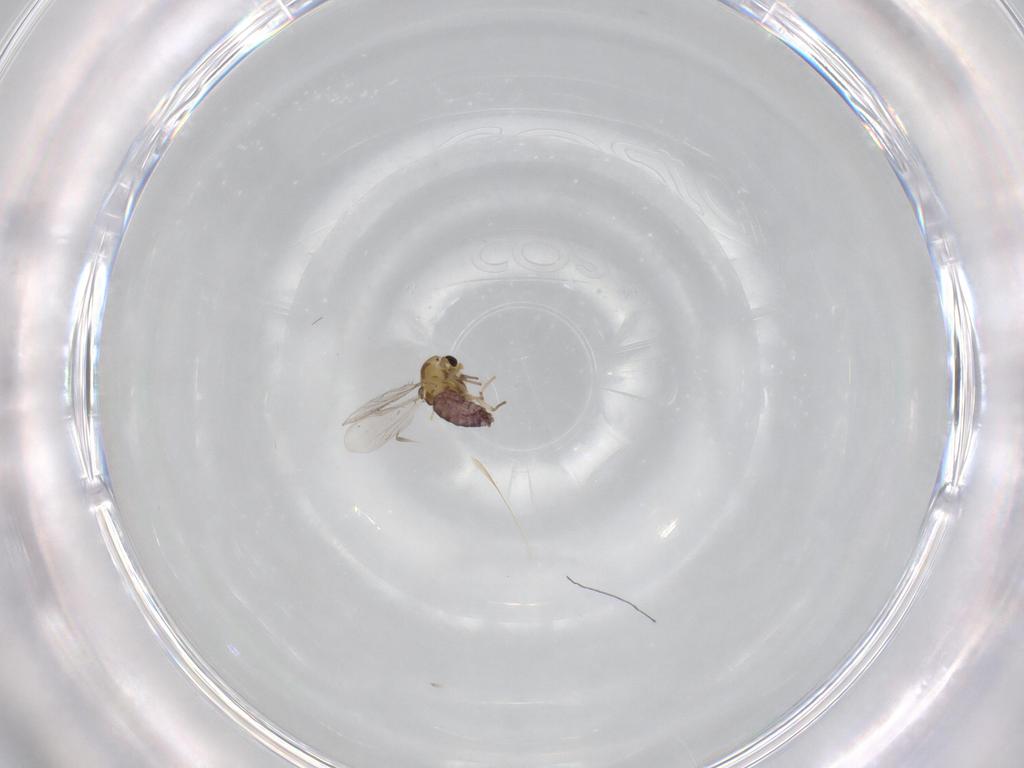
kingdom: Animalia
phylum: Arthropoda
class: Insecta
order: Diptera
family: Chironomidae
